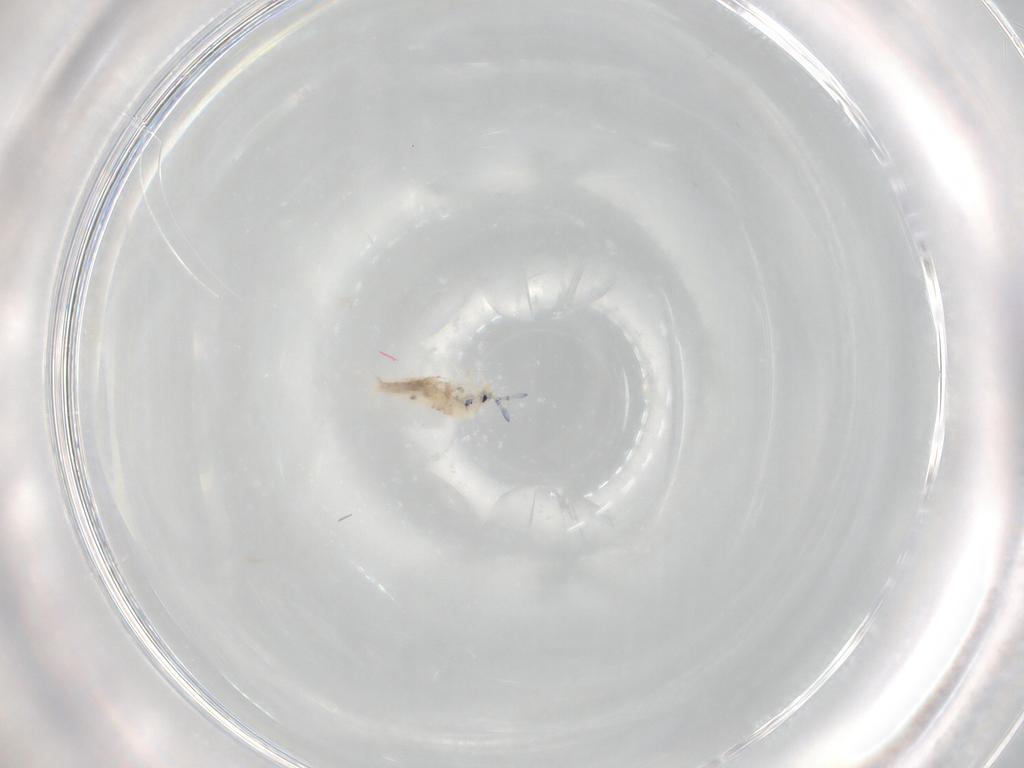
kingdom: Animalia
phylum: Arthropoda
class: Collembola
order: Entomobryomorpha
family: Entomobryidae
